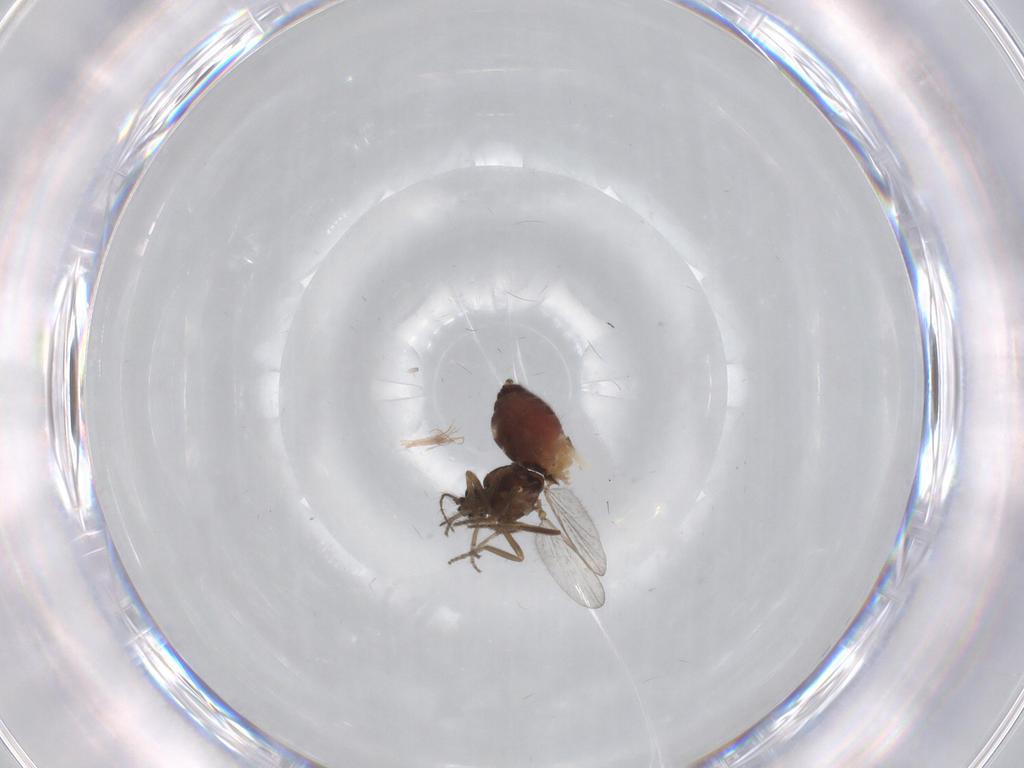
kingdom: Animalia
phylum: Arthropoda
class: Insecta
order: Diptera
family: Ceratopogonidae
